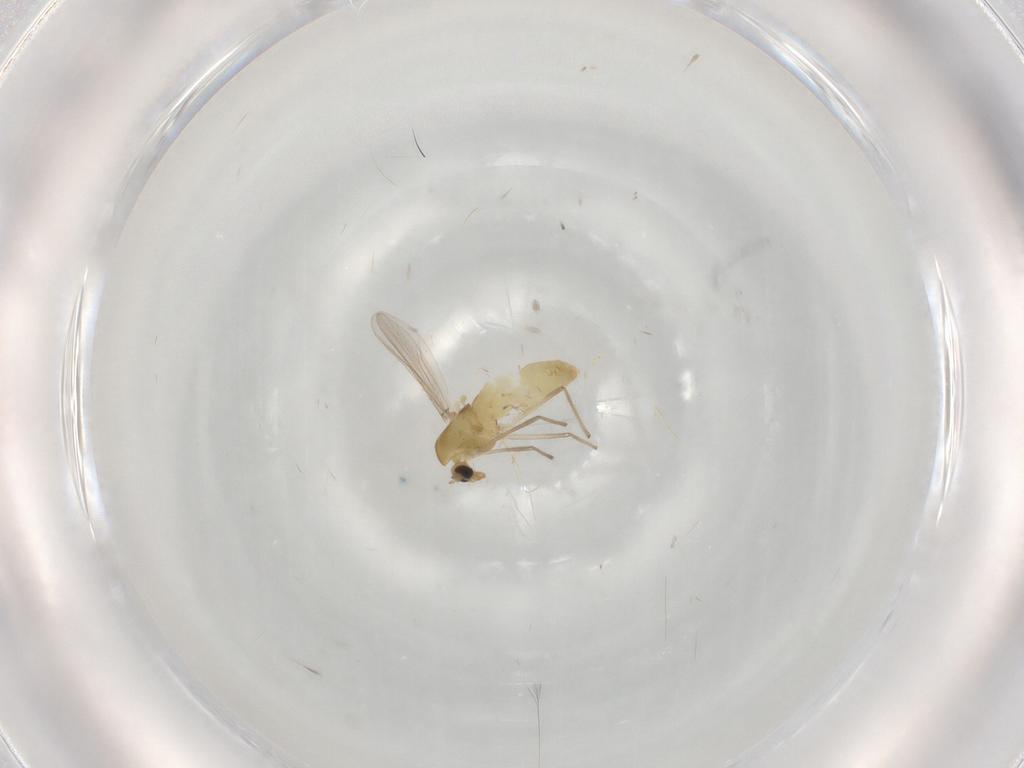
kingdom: Animalia
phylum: Arthropoda
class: Insecta
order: Diptera
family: Chironomidae
